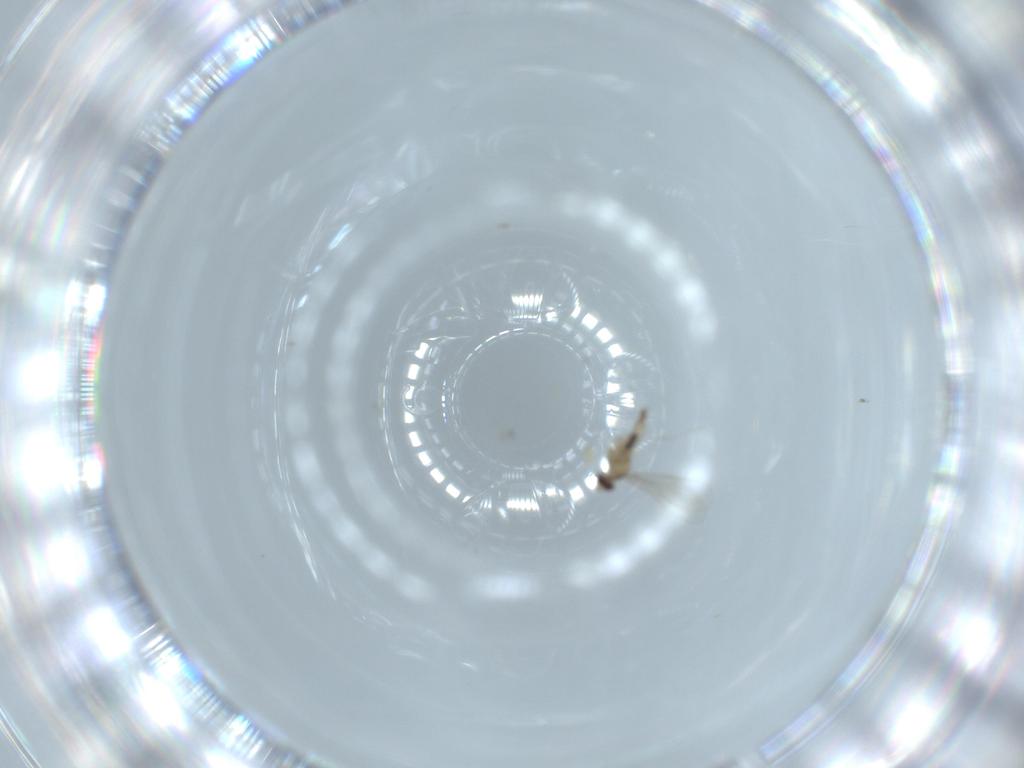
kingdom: Animalia
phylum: Arthropoda
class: Insecta
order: Diptera
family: Cecidomyiidae
